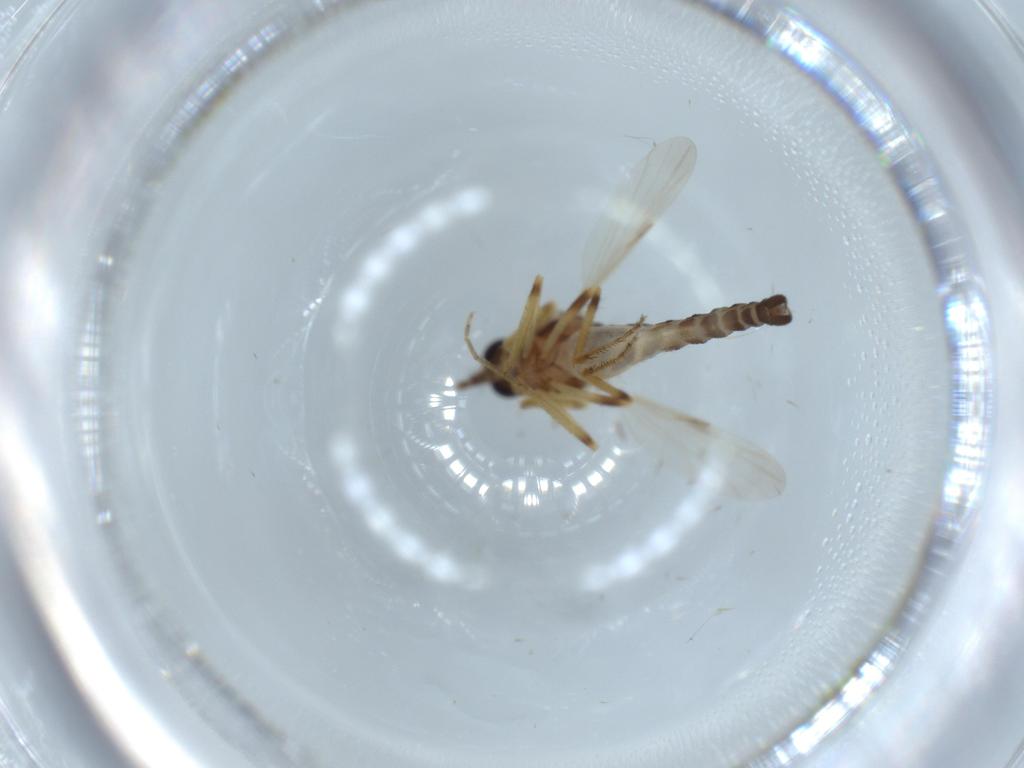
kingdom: Animalia
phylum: Arthropoda
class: Insecta
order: Diptera
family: Ceratopogonidae
